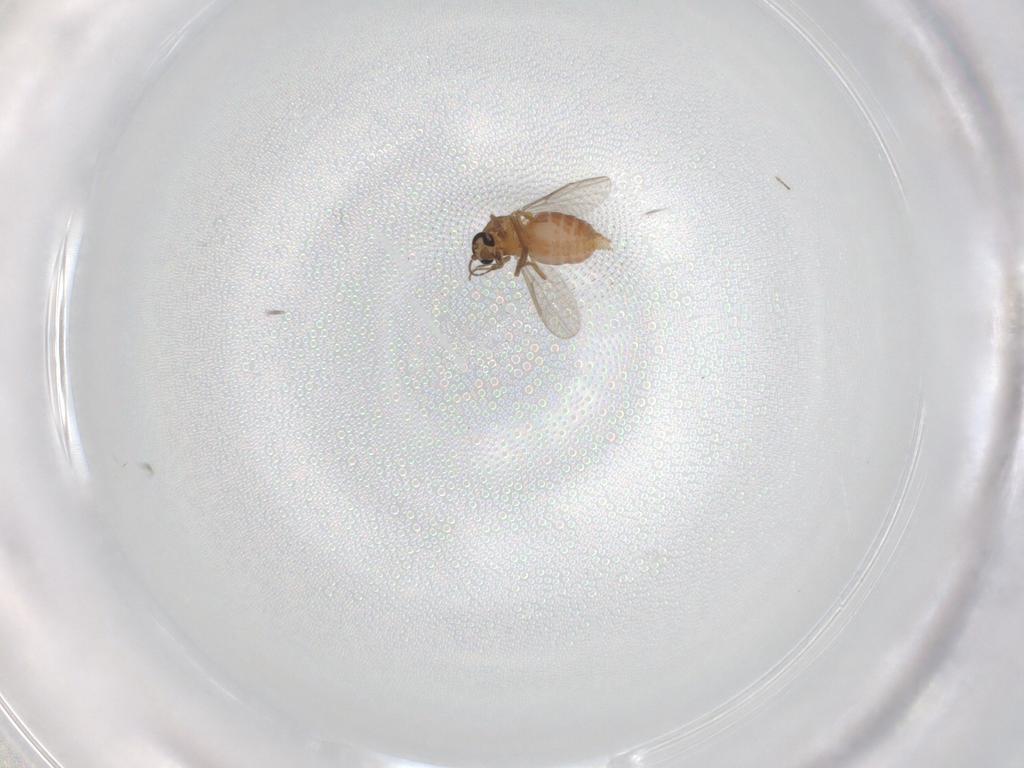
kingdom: Animalia
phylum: Arthropoda
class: Insecta
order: Diptera
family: Ceratopogonidae
